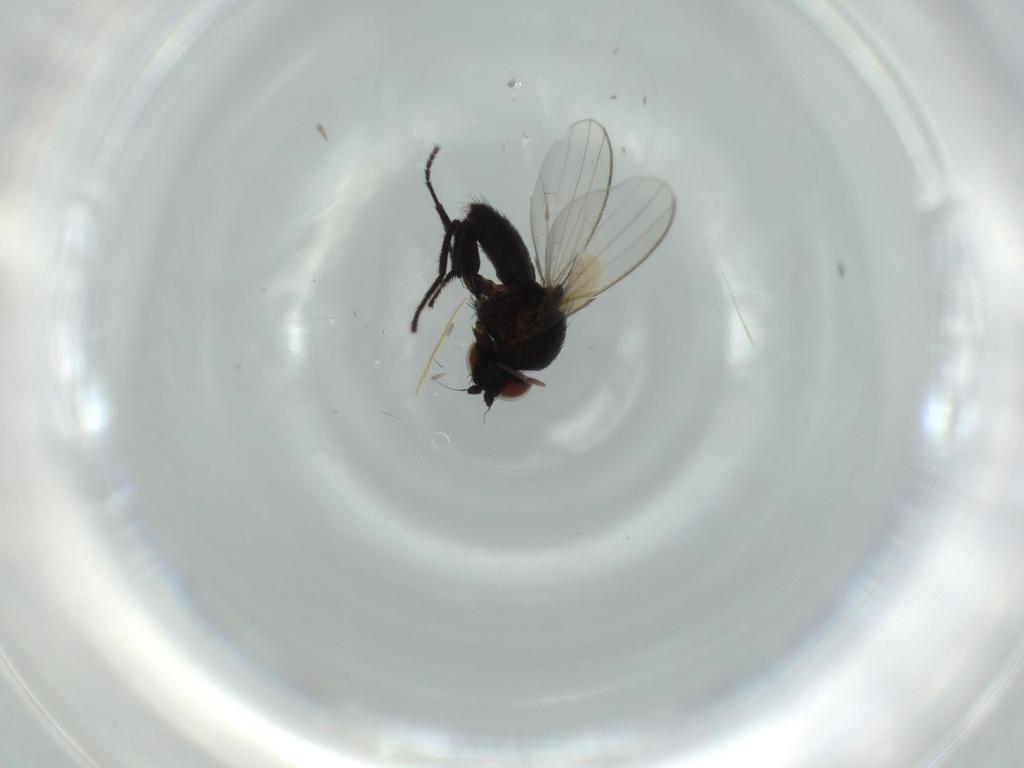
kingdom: Animalia
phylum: Arthropoda
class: Insecta
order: Diptera
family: Milichiidae
